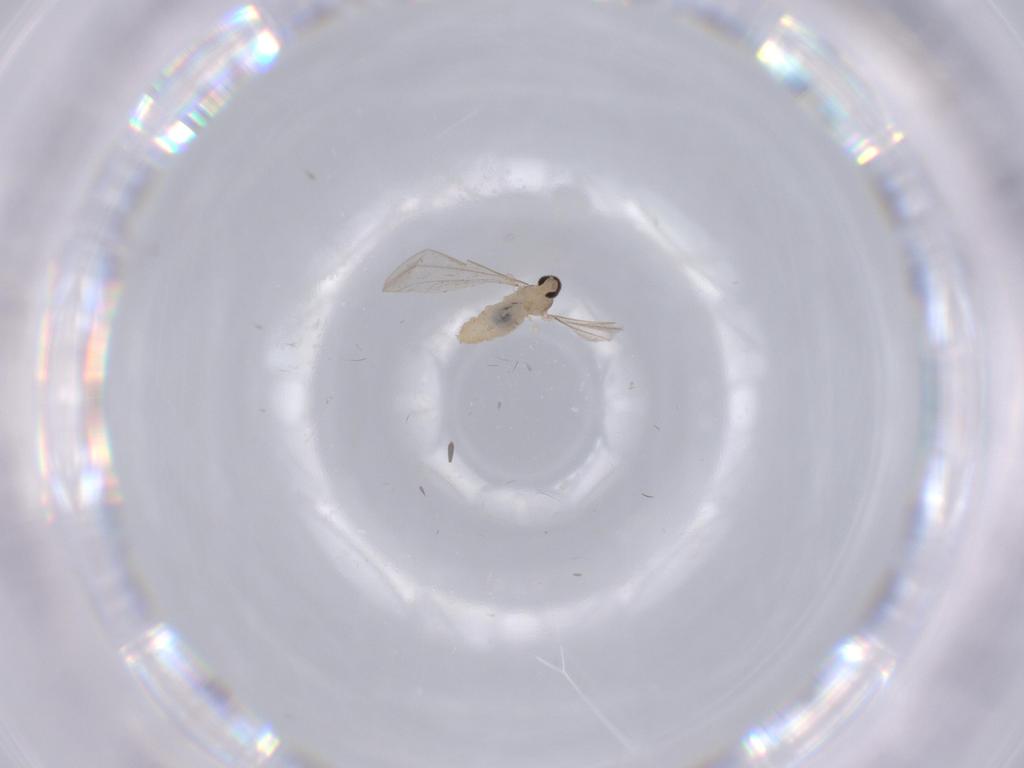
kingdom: Animalia
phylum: Arthropoda
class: Insecta
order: Diptera
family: Cecidomyiidae
